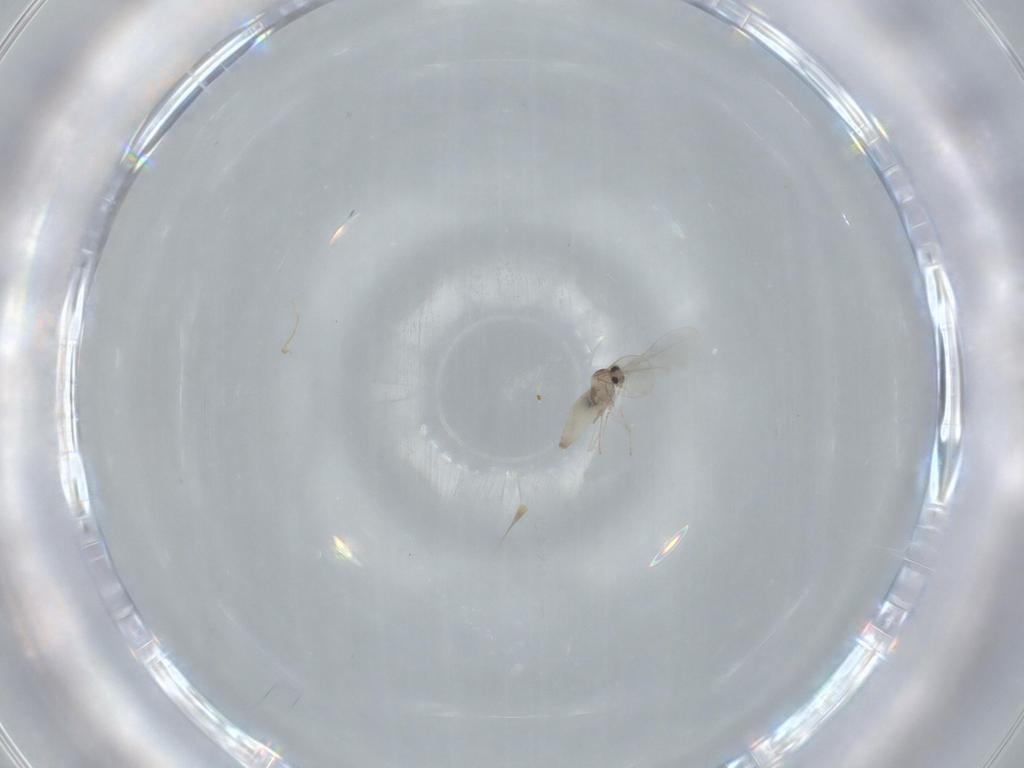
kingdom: Animalia
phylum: Arthropoda
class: Insecta
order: Diptera
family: Cecidomyiidae
